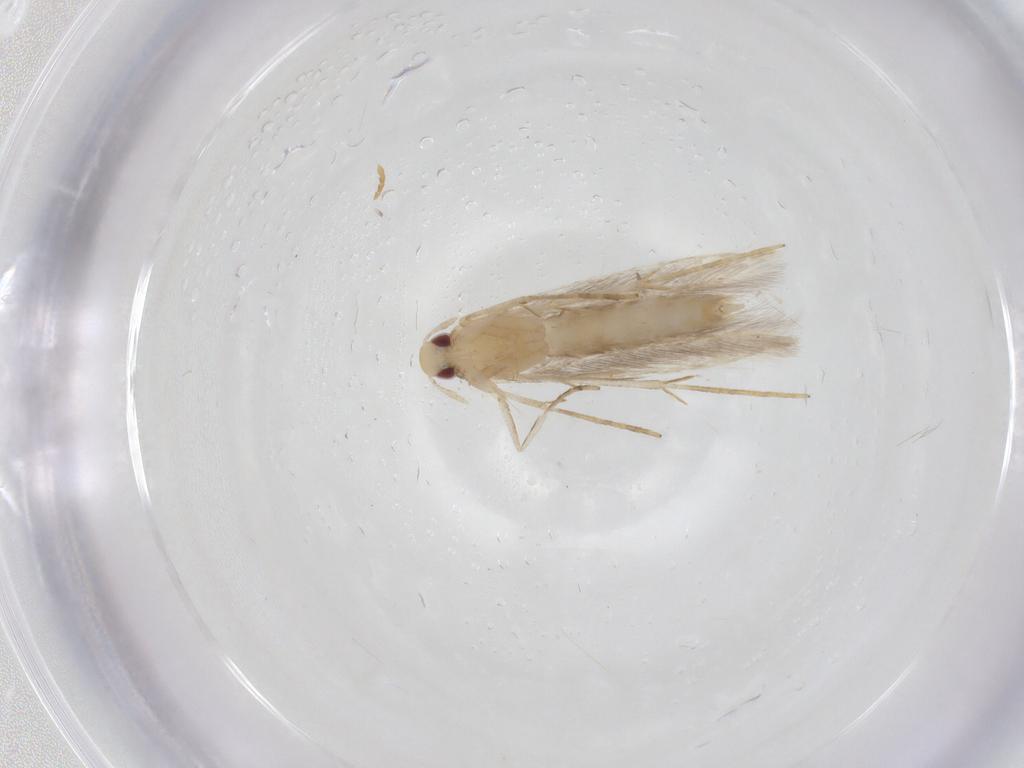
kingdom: Animalia
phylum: Arthropoda
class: Insecta
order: Lepidoptera
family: Cosmopterigidae
